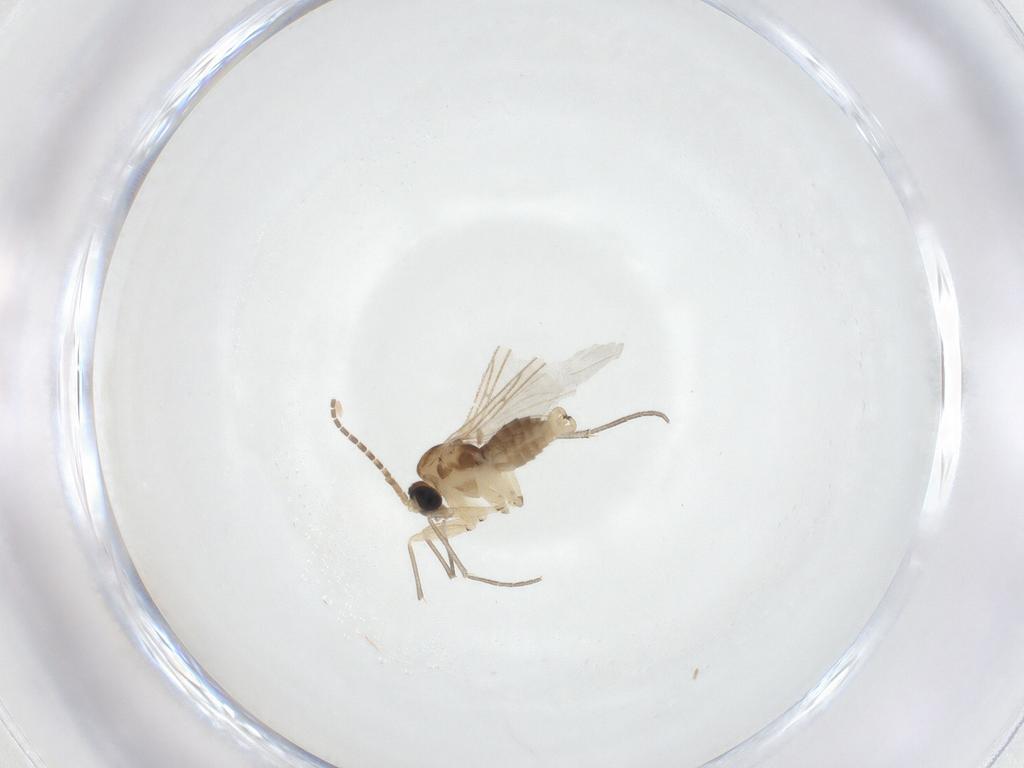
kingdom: Animalia
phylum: Arthropoda
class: Insecta
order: Diptera
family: Sciaridae
